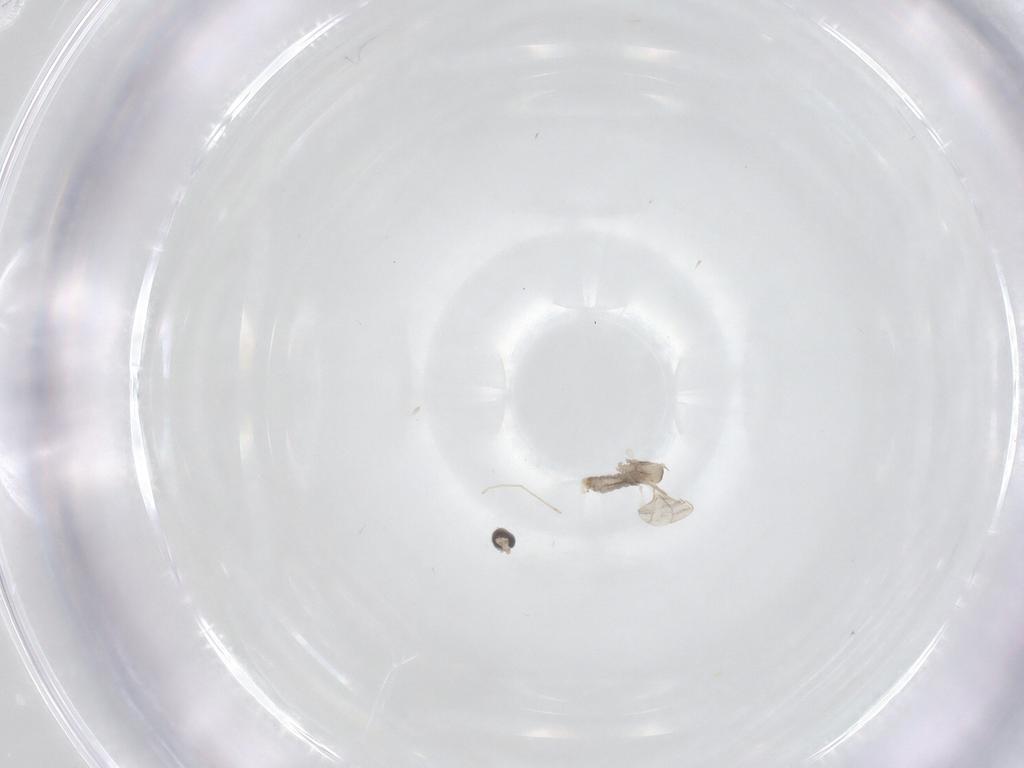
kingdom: Animalia
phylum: Arthropoda
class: Insecta
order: Diptera
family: Cecidomyiidae
